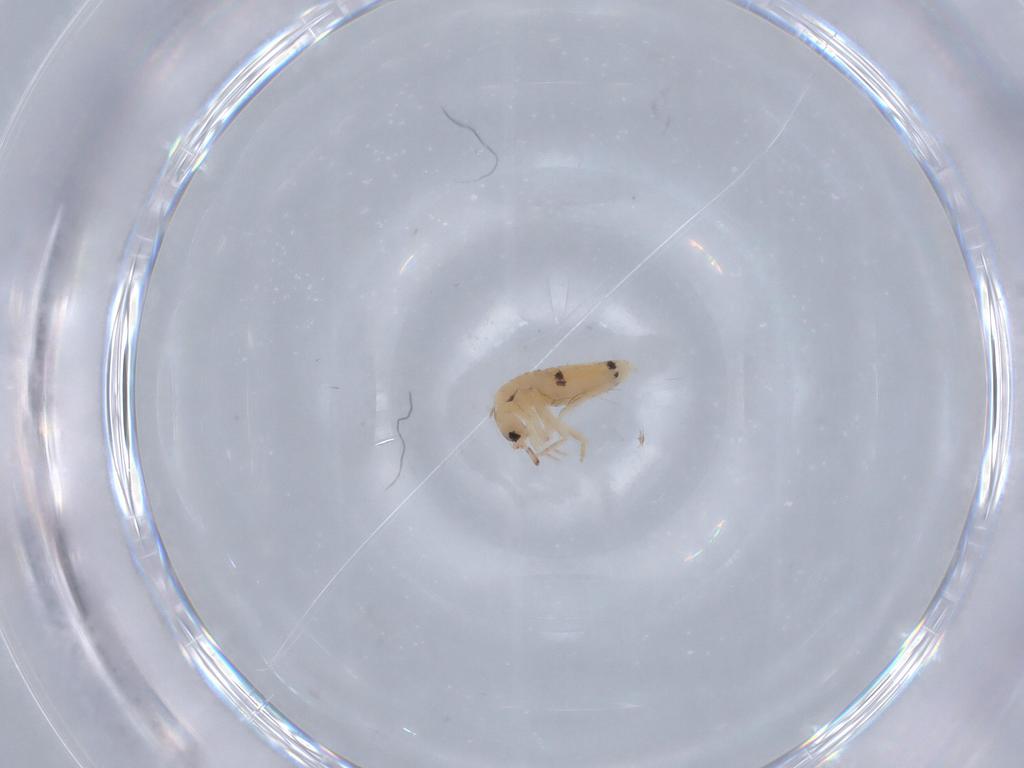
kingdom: Animalia
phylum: Arthropoda
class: Collembola
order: Entomobryomorpha
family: Entomobryidae
